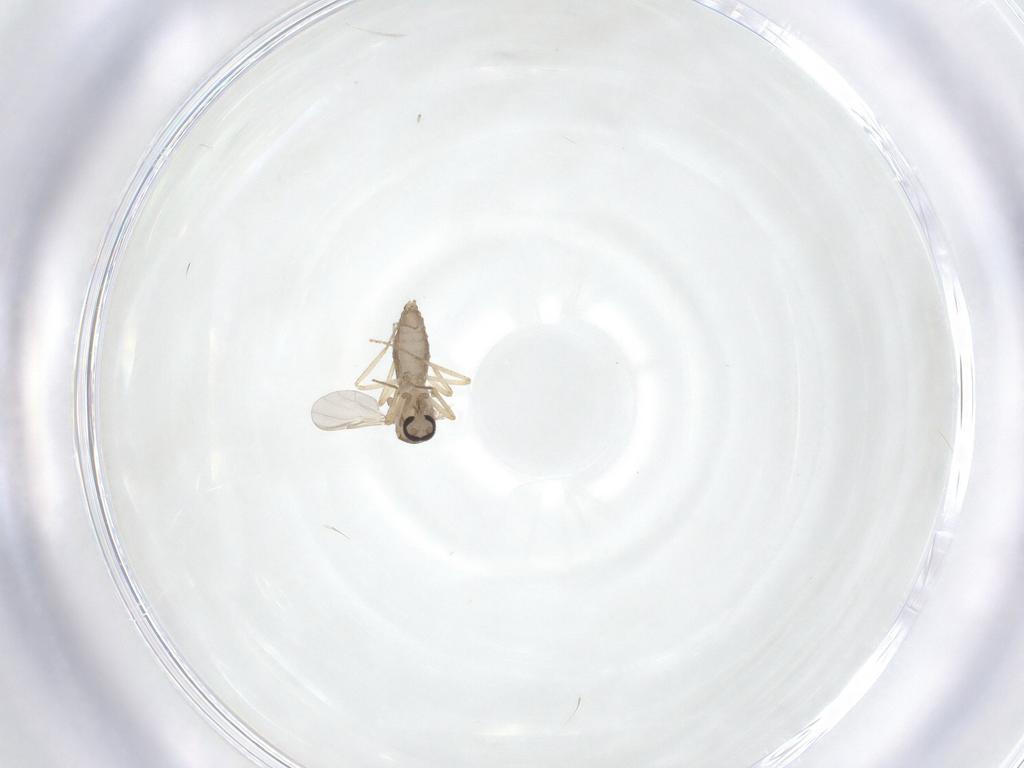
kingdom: Animalia
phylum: Arthropoda
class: Insecta
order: Diptera
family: Ceratopogonidae
